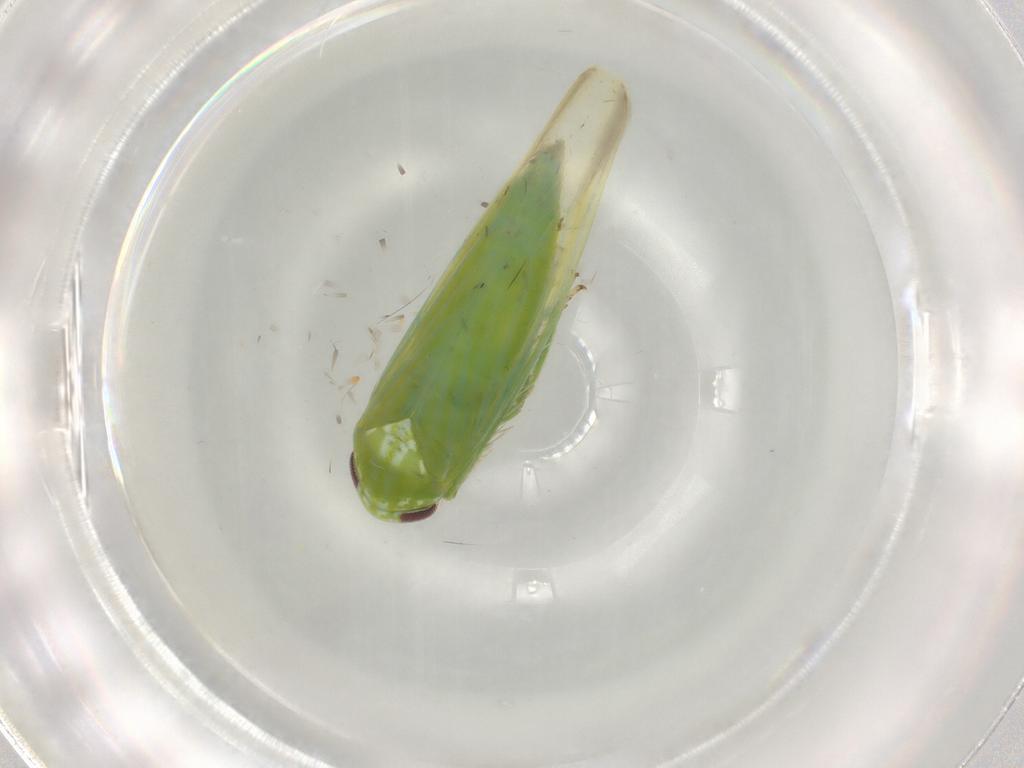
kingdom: Animalia
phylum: Arthropoda
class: Insecta
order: Hemiptera
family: Cicadellidae
